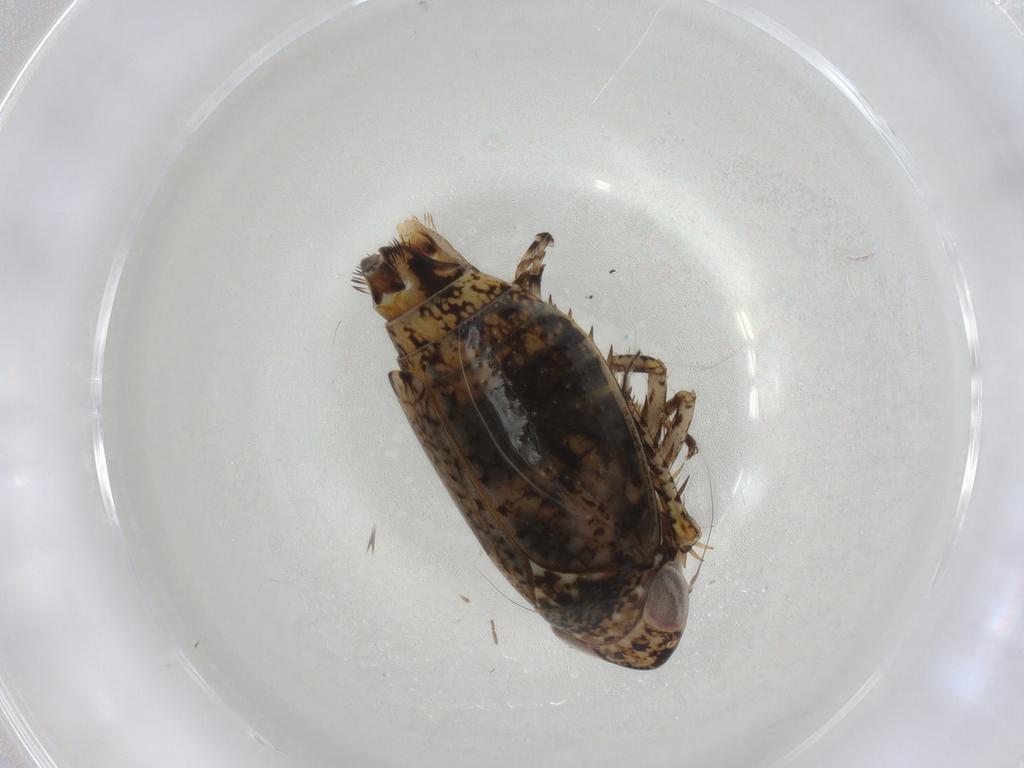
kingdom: Animalia
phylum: Arthropoda
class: Insecta
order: Hemiptera
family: Cicadellidae
